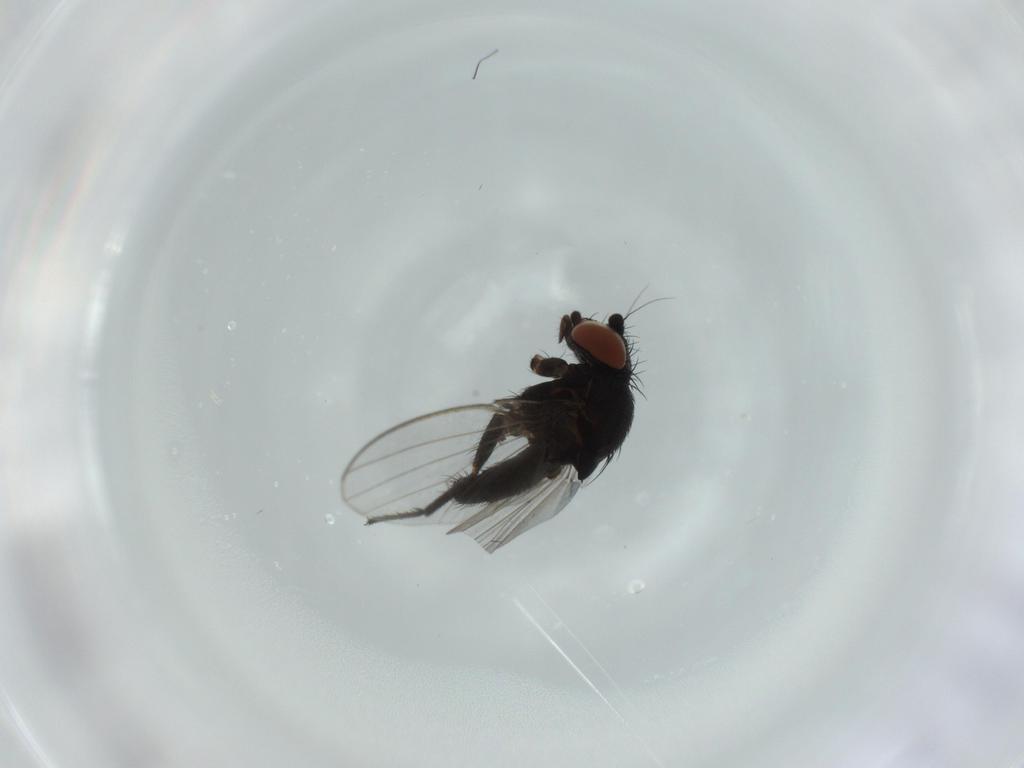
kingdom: Animalia
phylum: Arthropoda
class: Insecta
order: Diptera
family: Milichiidae
